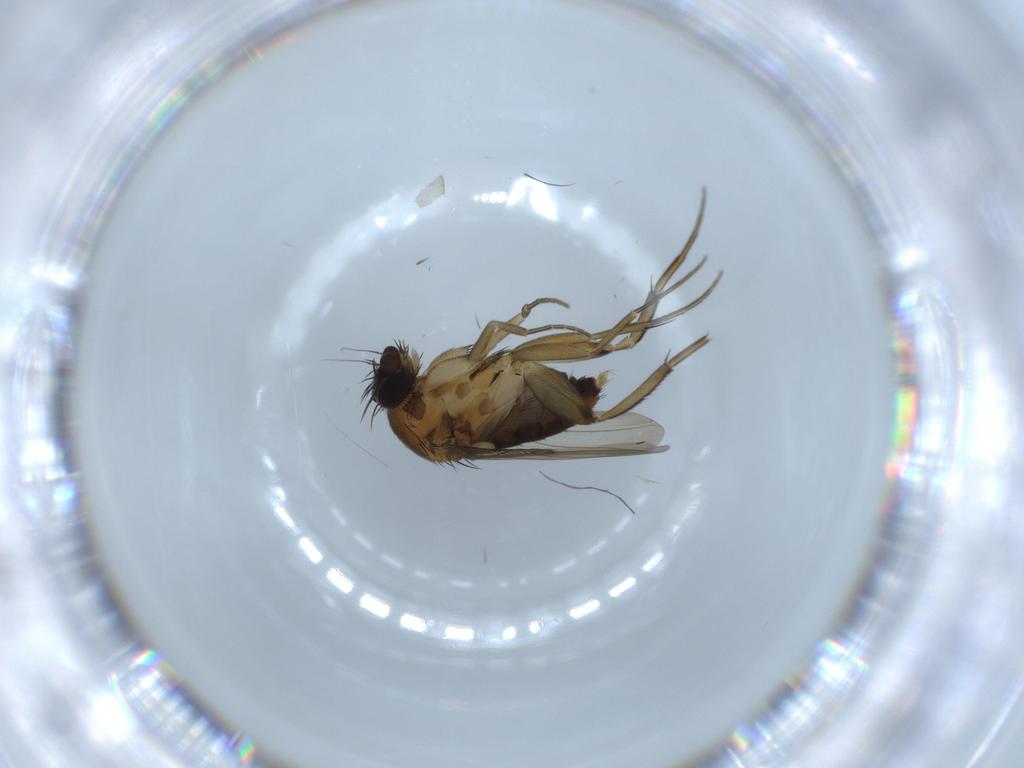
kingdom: Animalia
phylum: Arthropoda
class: Insecta
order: Diptera
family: Phoridae
